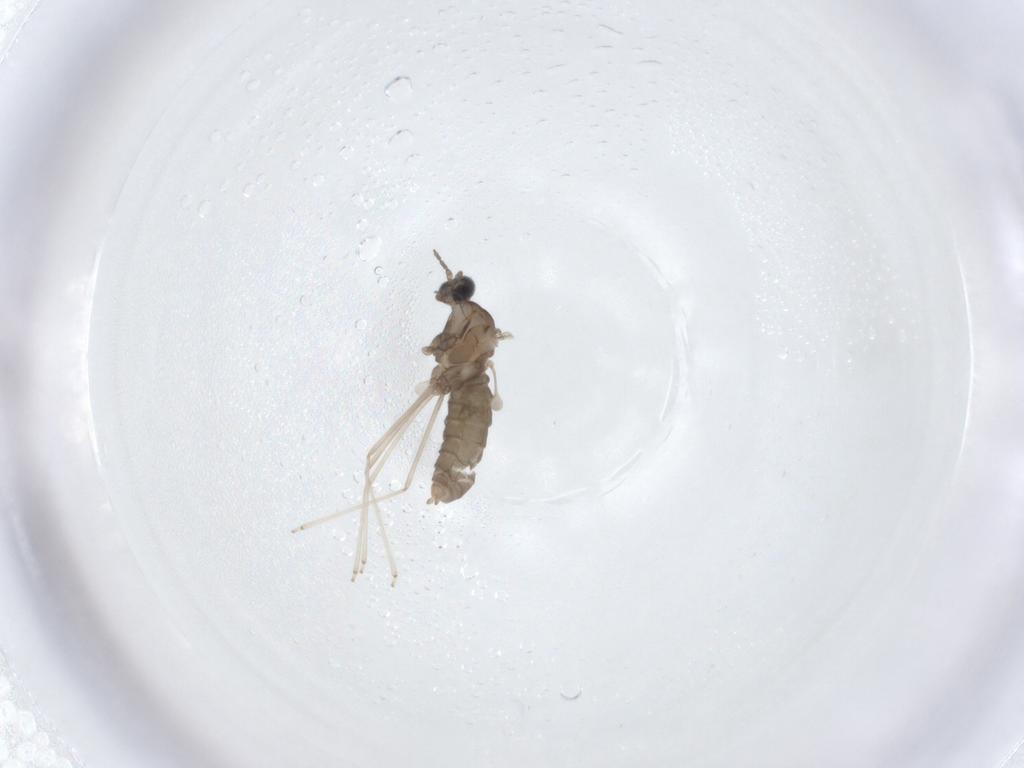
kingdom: Animalia
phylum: Arthropoda
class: Insecta
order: Diptera
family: Cecidomyiidae
